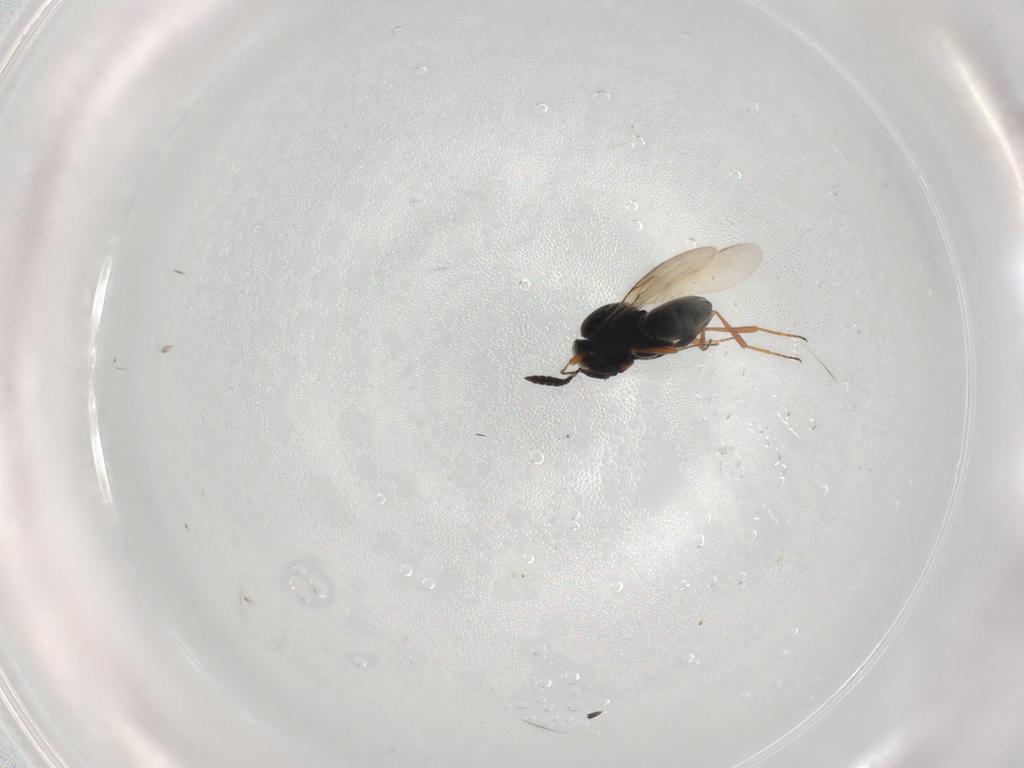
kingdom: Animalia
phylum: Arthropoda
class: Insecta
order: Hymenoptera
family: Scelionidae
